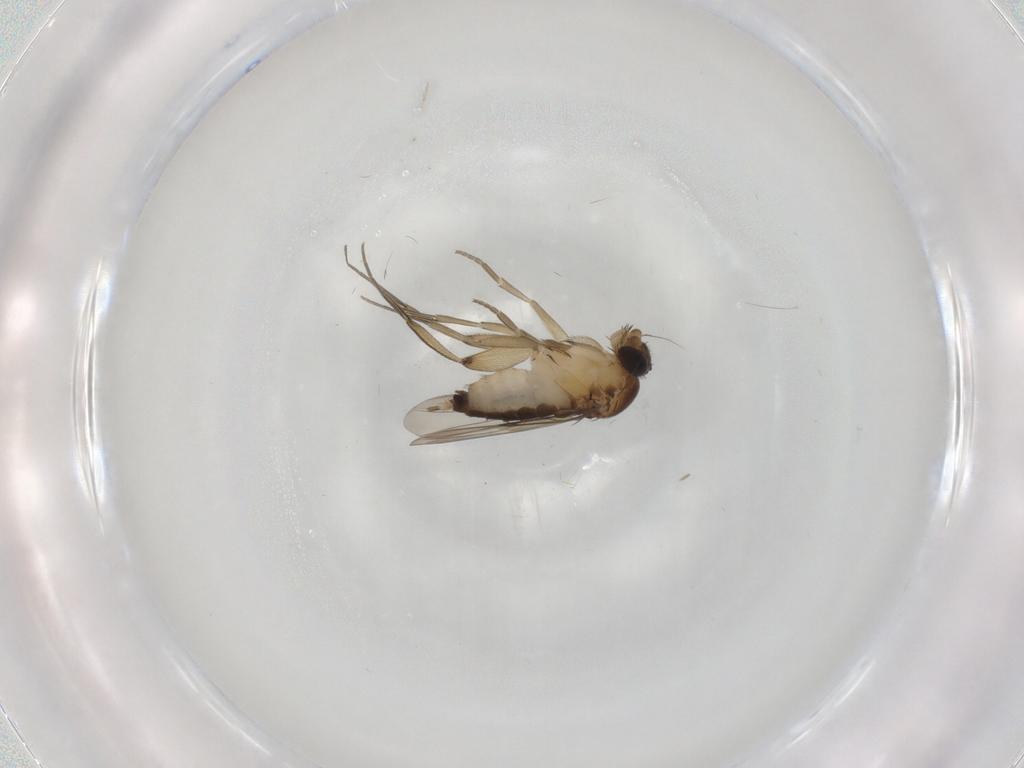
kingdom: Animalia
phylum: Arthropoda
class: Insecta
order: Diptera
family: Phoridae
